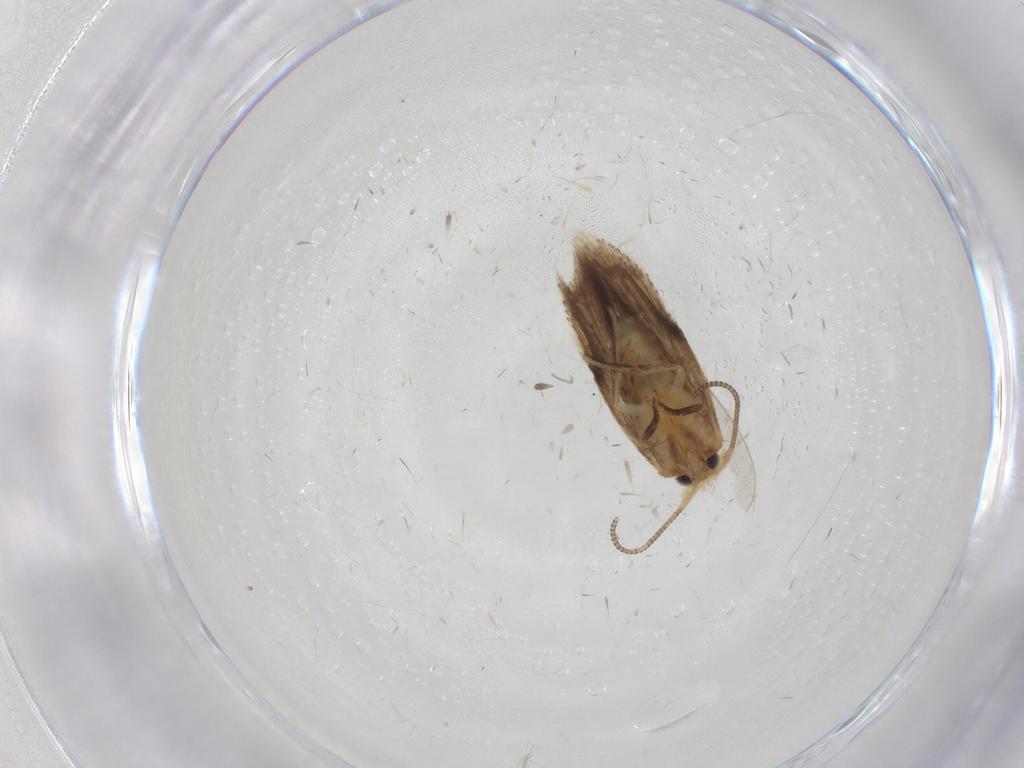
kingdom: Animalia
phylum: Arthropoda
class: Insecta
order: Lepidoptera
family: Nepticulidae
